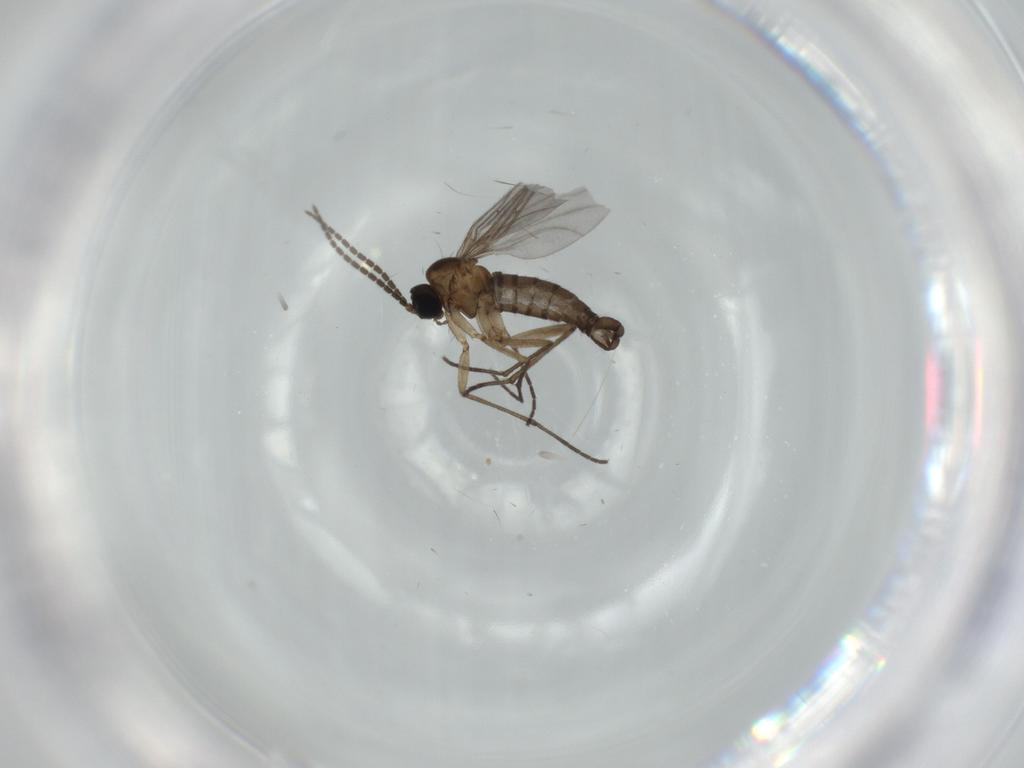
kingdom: Animalia
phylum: Arthropoda
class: Insecta
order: Diptera
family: Sciaridae
